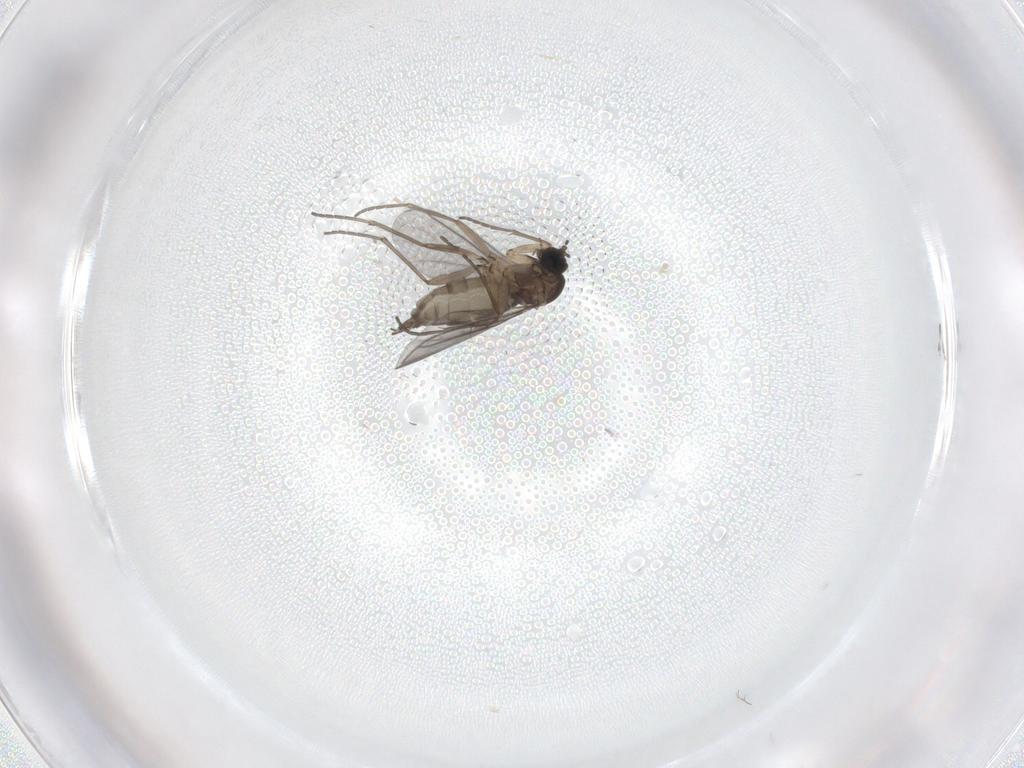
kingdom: Animalia
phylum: Arthropoda
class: Insecta
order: Diptera
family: Sciaridae
